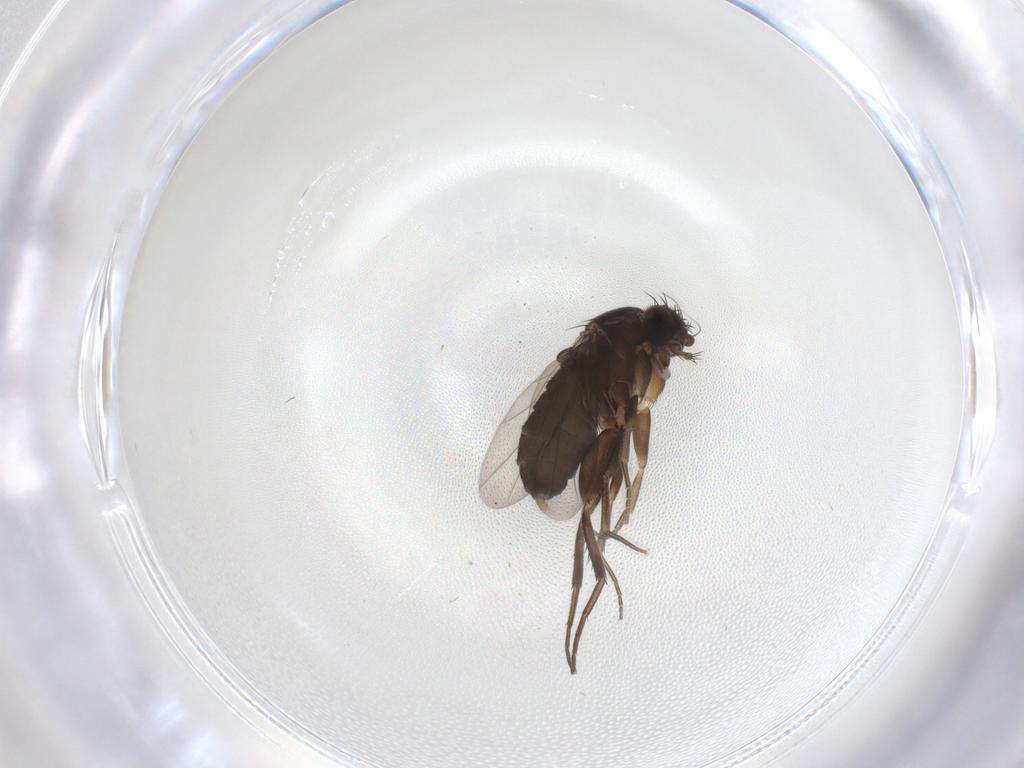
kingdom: Animalia
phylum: Arthropoda
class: Insecta
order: Diptera
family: Phoridae
